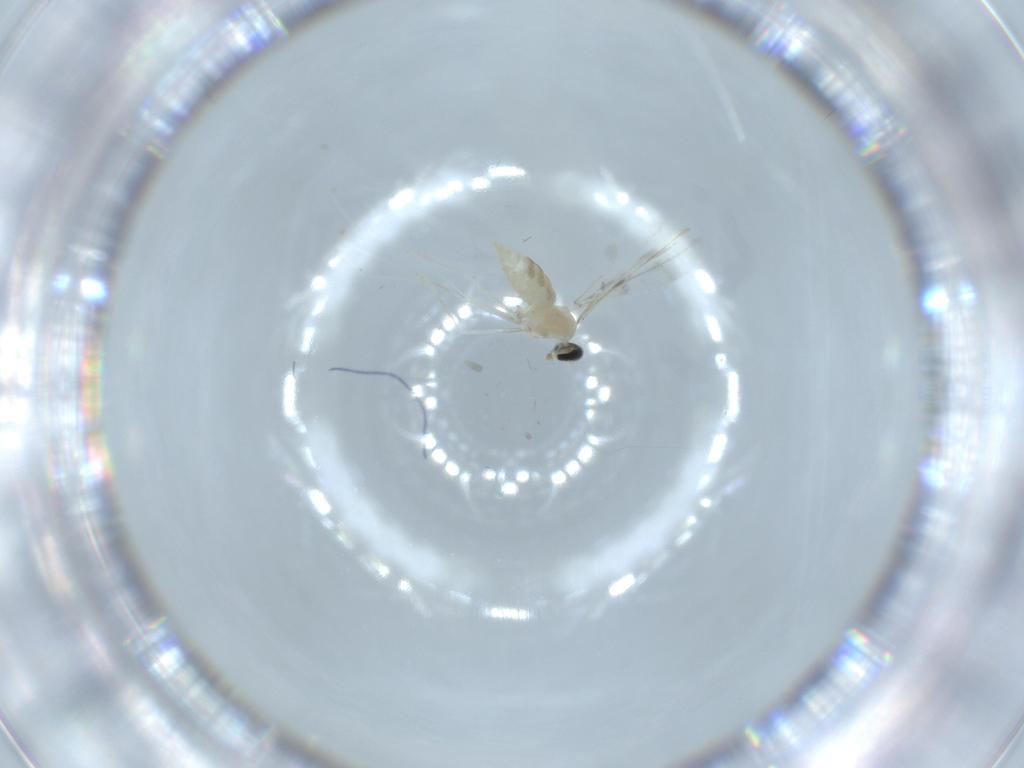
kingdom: Animalia
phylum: Arthropoda
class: Insecta
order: Diptera
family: Cecidomyiidae
